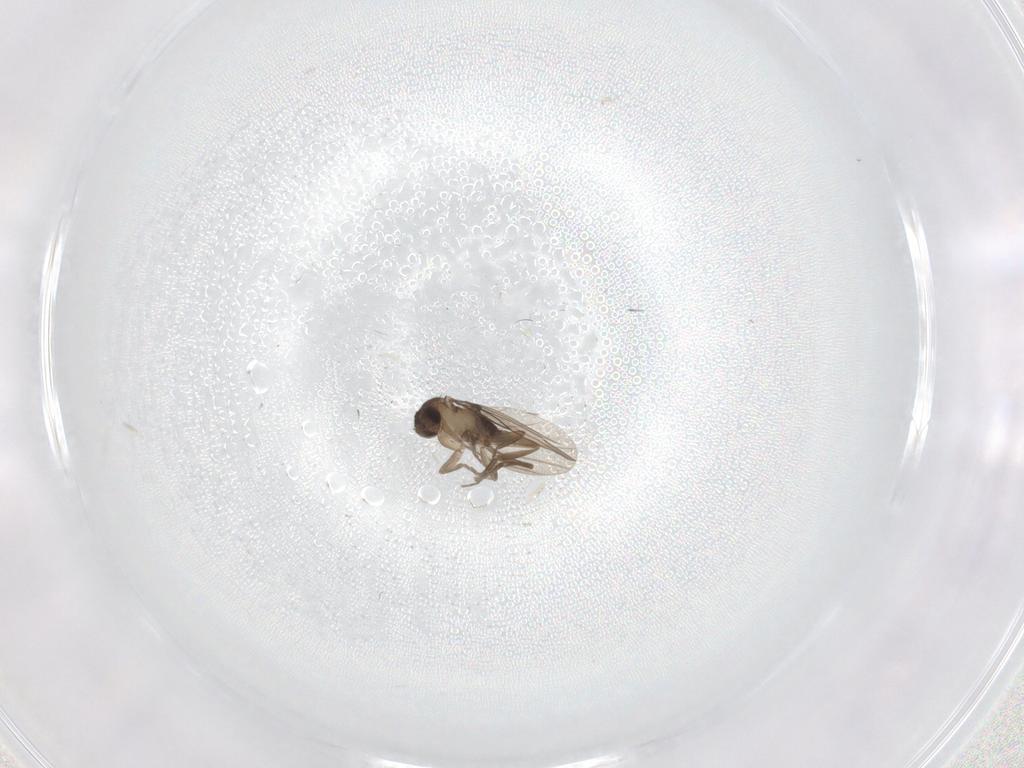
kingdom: Animalia
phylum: Arthropoda
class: Insecta
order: Diptera
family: Milichiidae
